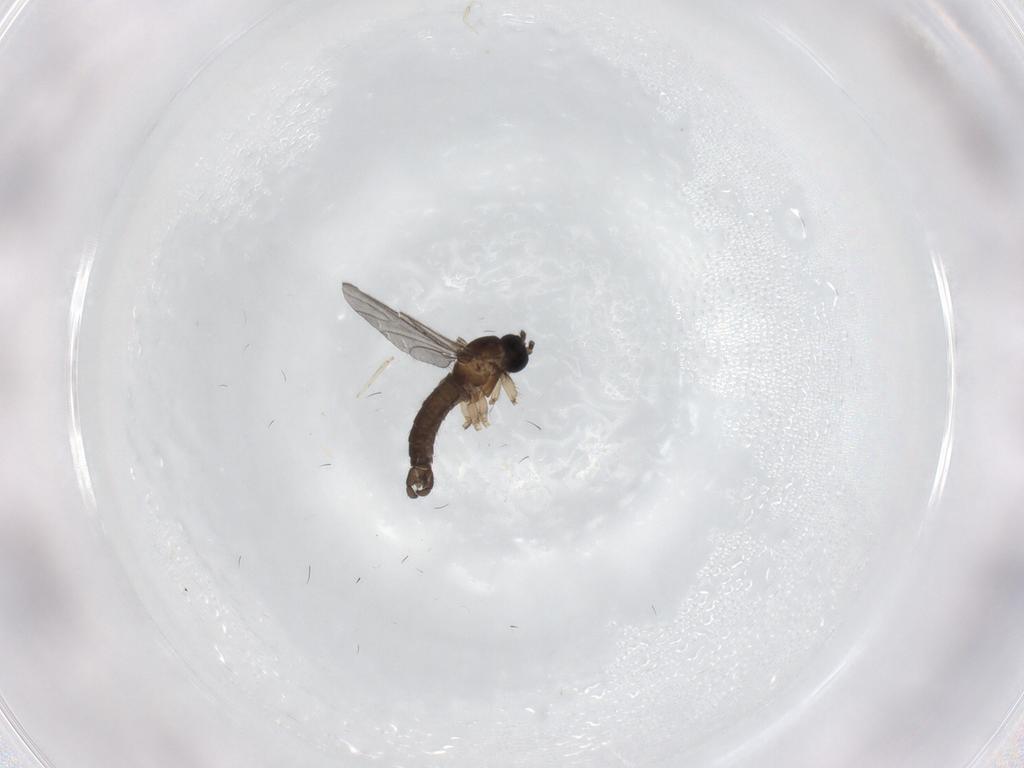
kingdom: Animalia
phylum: Arthropoda
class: Insecta
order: Diptera
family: Sciaridae
